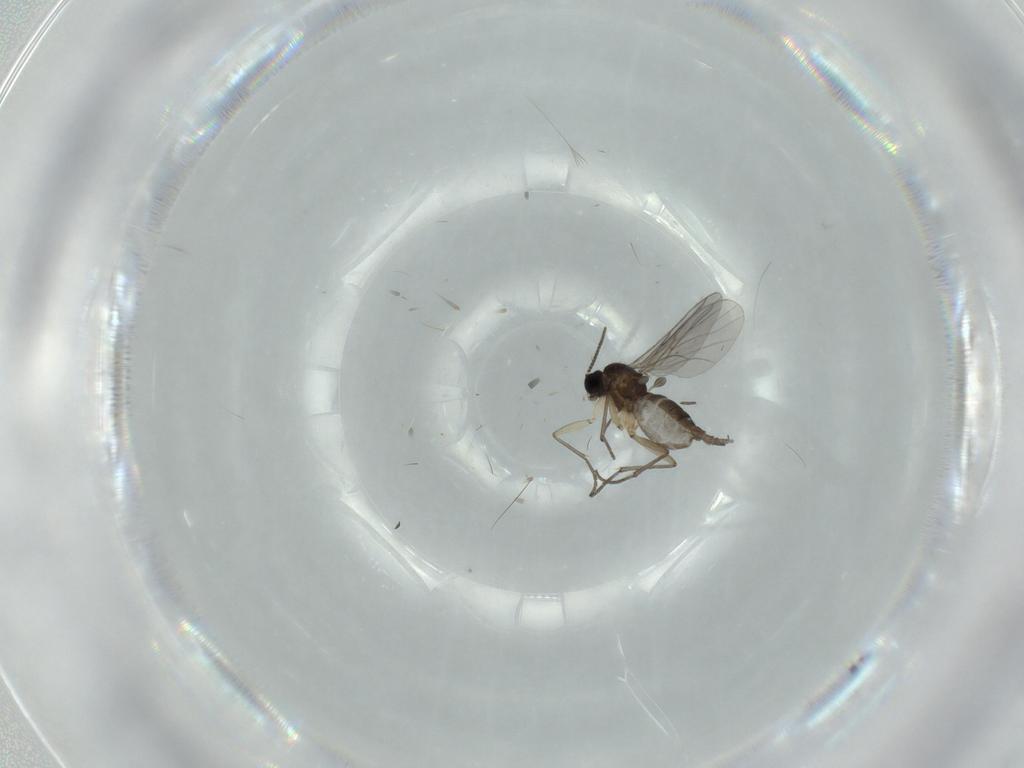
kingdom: Animalia
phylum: Arthropoda
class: Insecta
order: Diptera
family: Sciaridae
